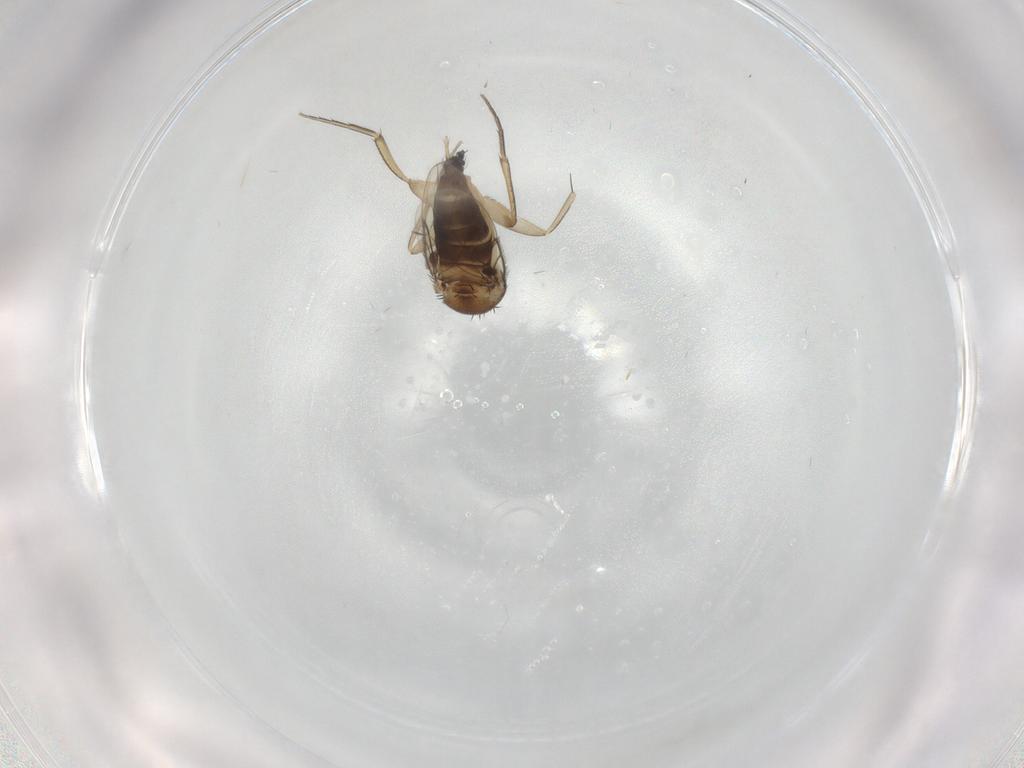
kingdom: Animalia
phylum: Arthropoda
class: Insecta
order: Diptera
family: Phoridae
